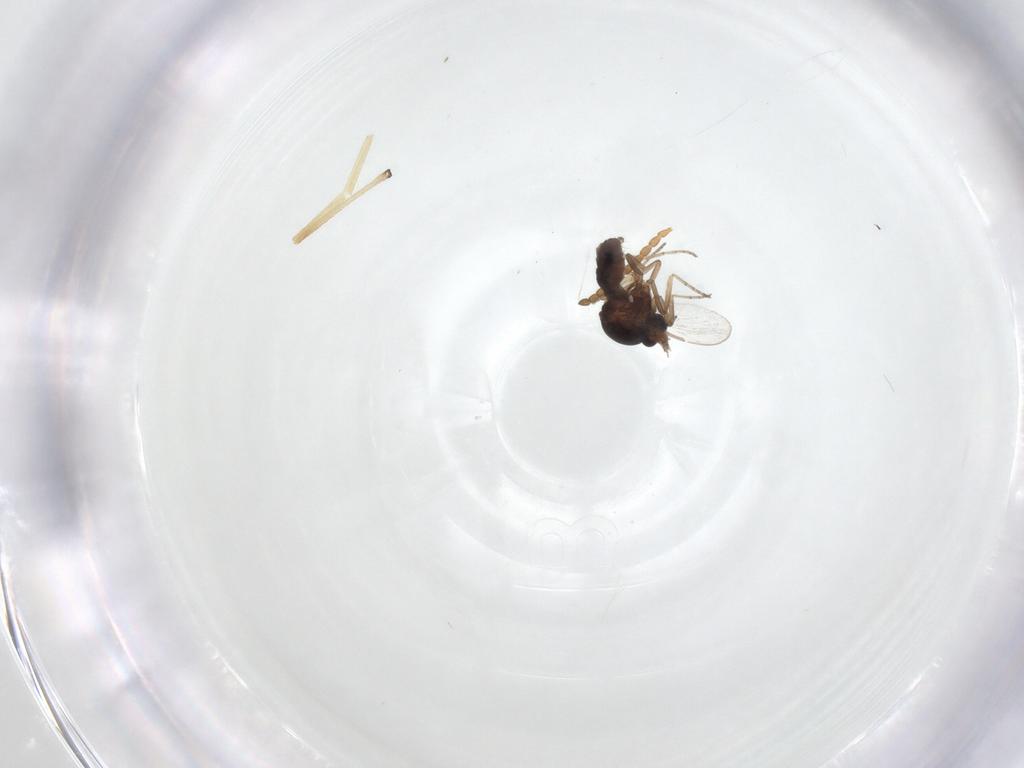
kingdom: Animalia
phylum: Arthropoda
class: Insecta
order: Diptera
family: Ceratopogonidae
